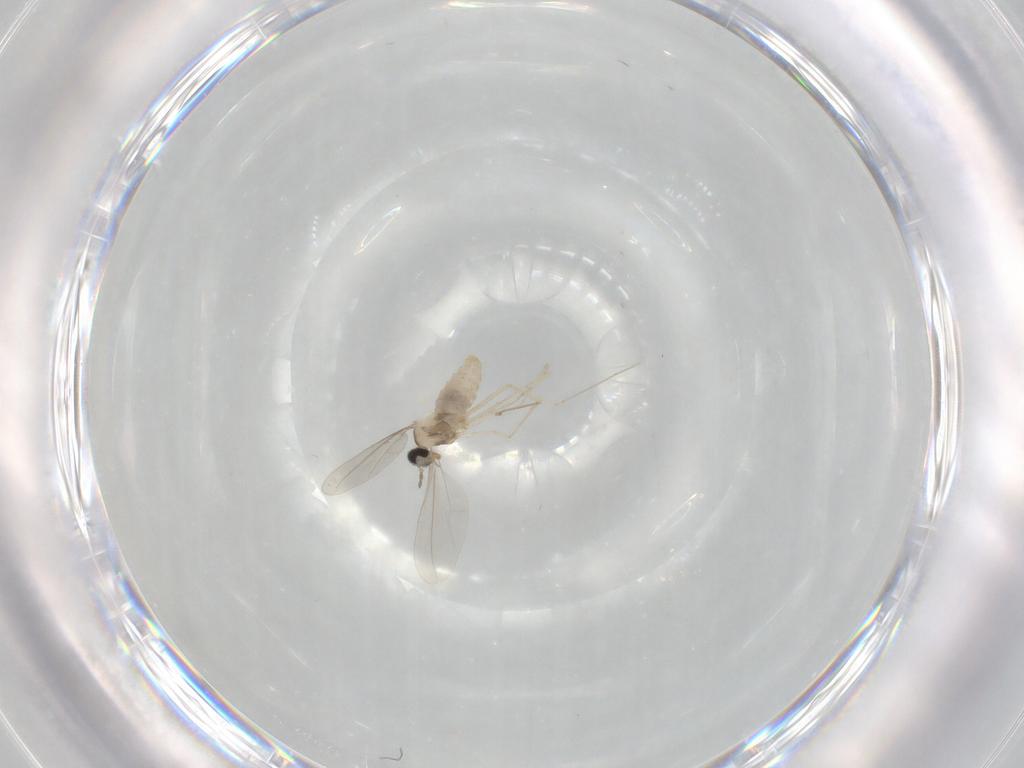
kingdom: Animalia
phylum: Arthropoda
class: Insecta
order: Diptera
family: Cecidomyiidae
